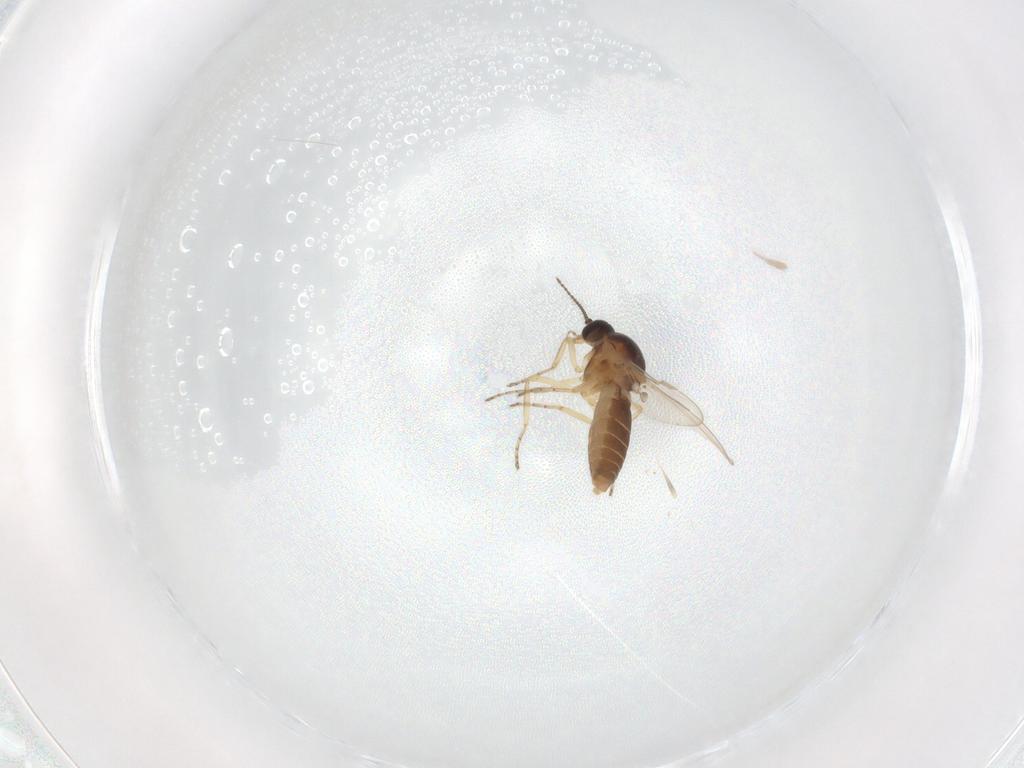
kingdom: Animalia
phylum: Arthropoda
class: Insecta
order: Diptera
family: Ceratopogonidae
